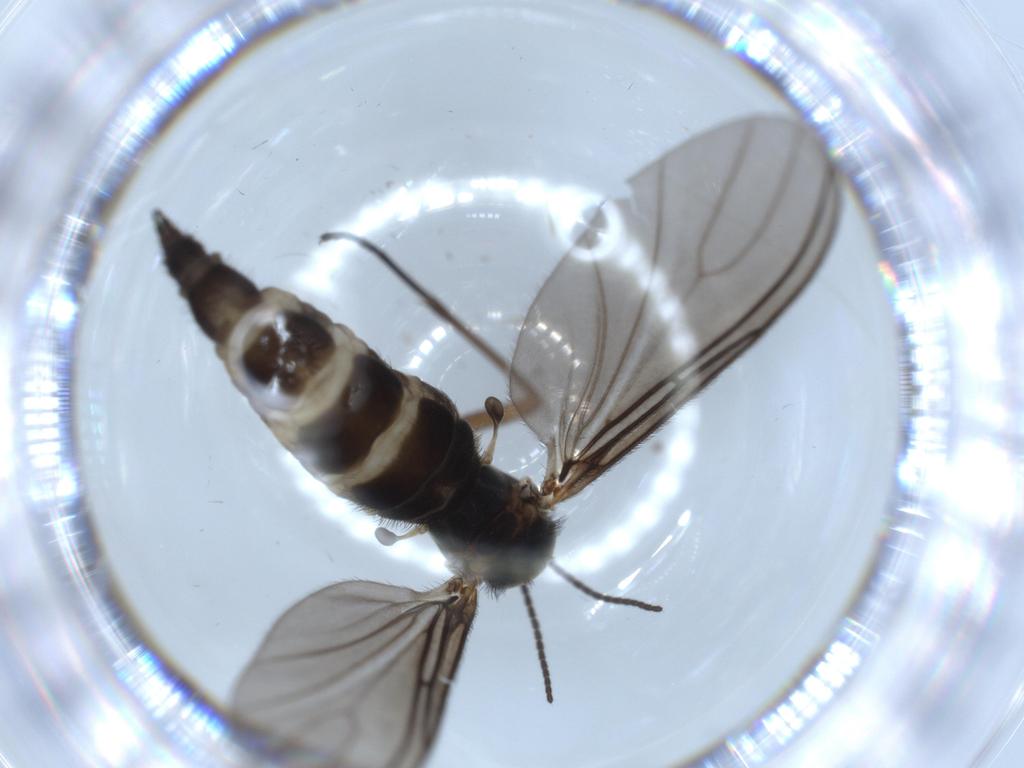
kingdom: Animalia
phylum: Arthropoda
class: Insecta
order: Diptera
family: Sciaridae
